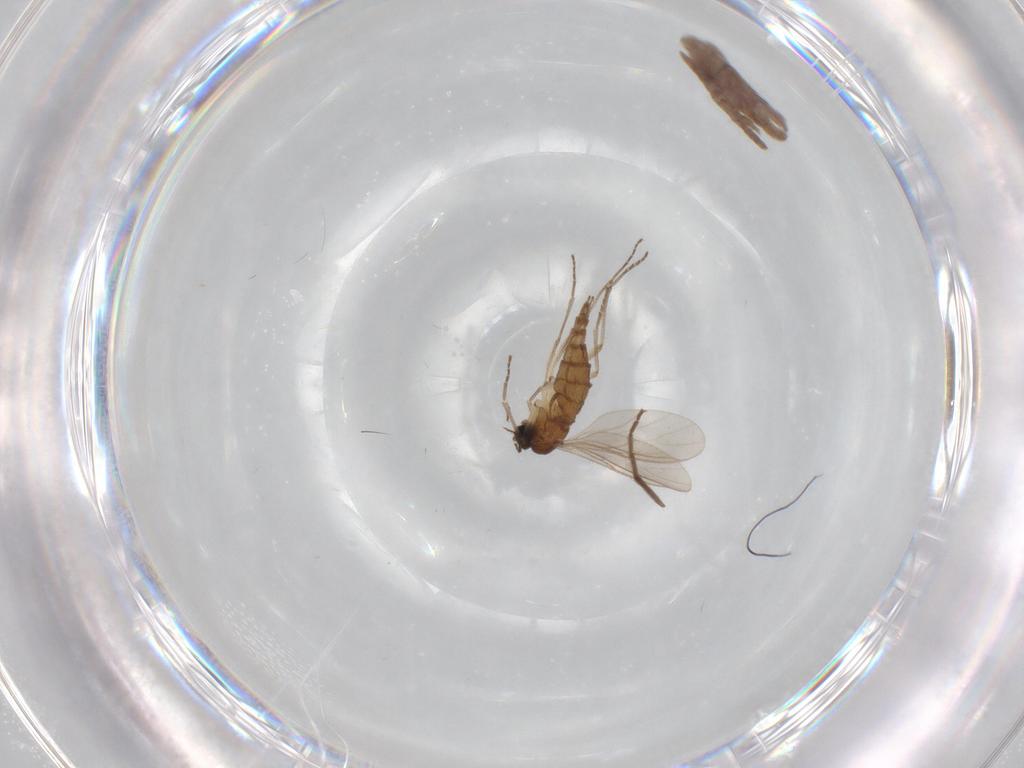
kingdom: Animalia
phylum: Arthropoda
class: Insecta
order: Diptera
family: Sciaridae
